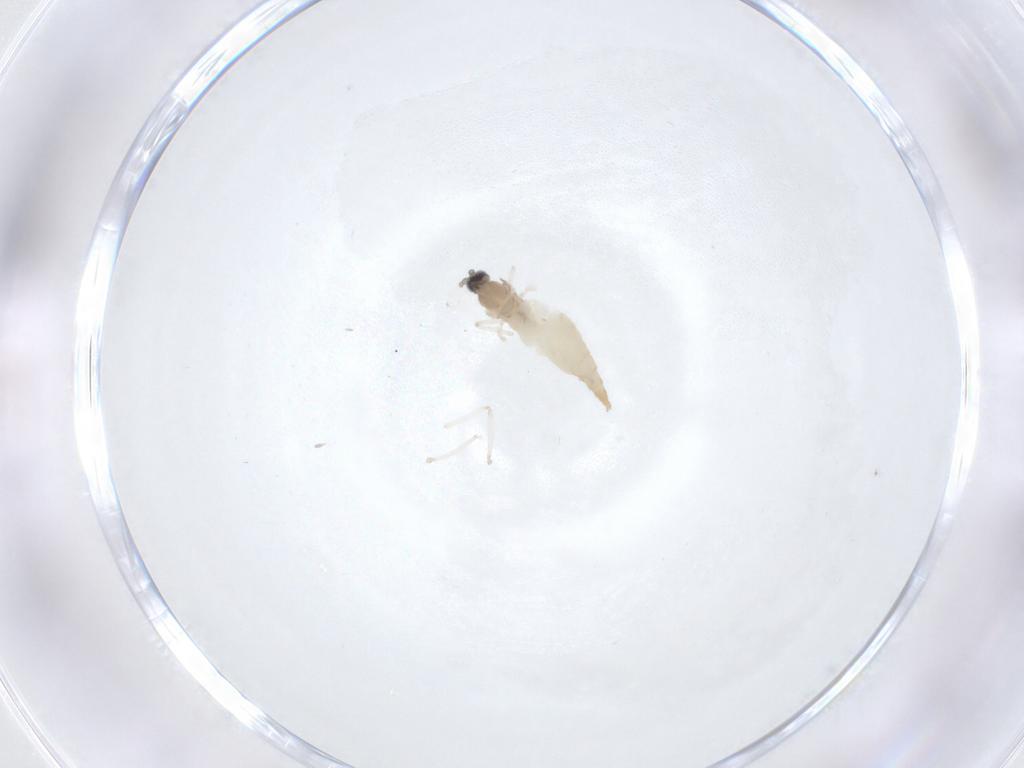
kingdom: Animalia
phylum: Arthropoda
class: Insecta
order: Diptera
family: Cecidomyiidae
